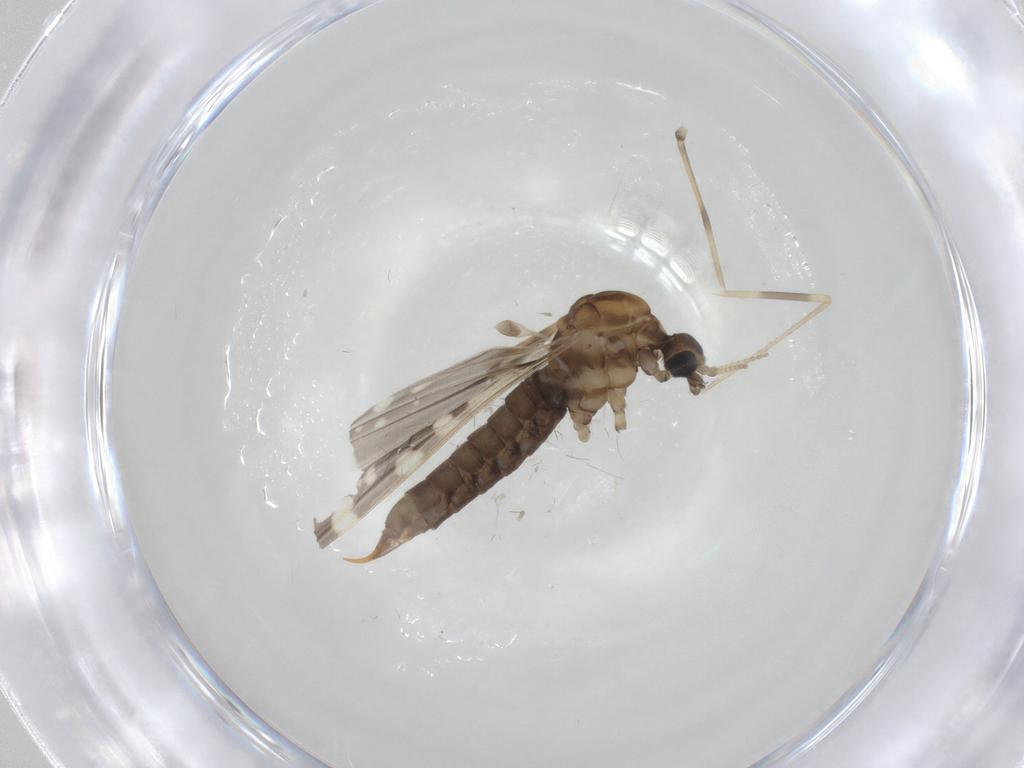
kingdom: Animalia
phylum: Arthropoda
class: Insecta
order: Diptera
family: Limoniidae
